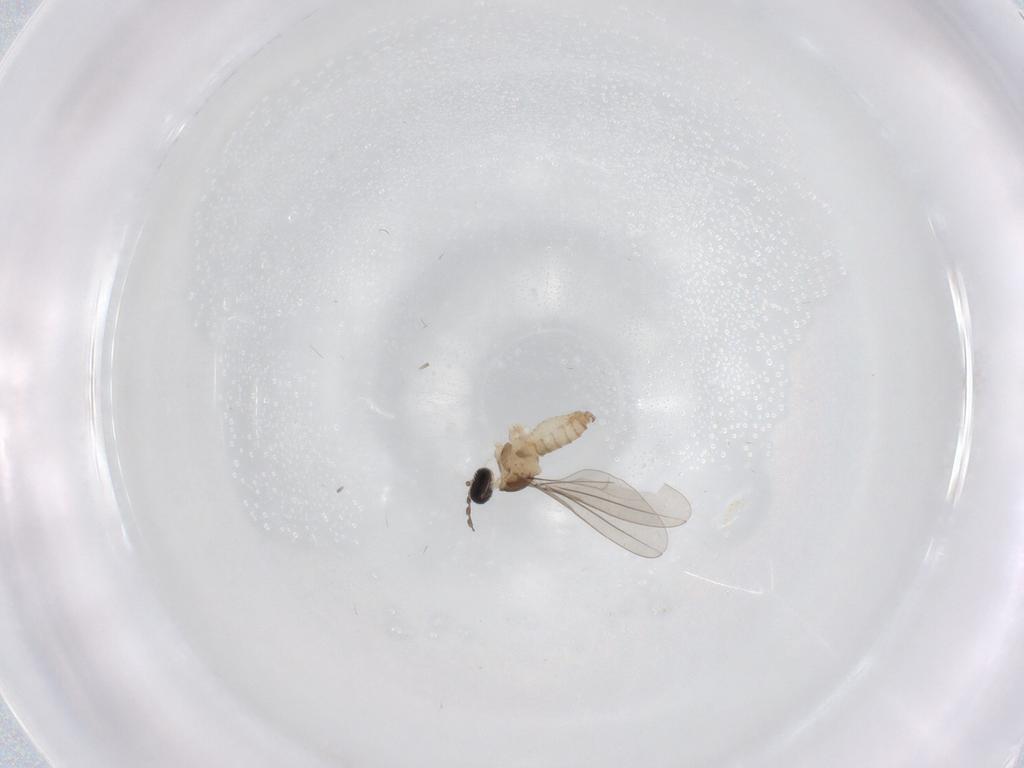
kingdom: Animalia
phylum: Arthropoda
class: Insecta
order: Diptera
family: Cecidomyiidae
